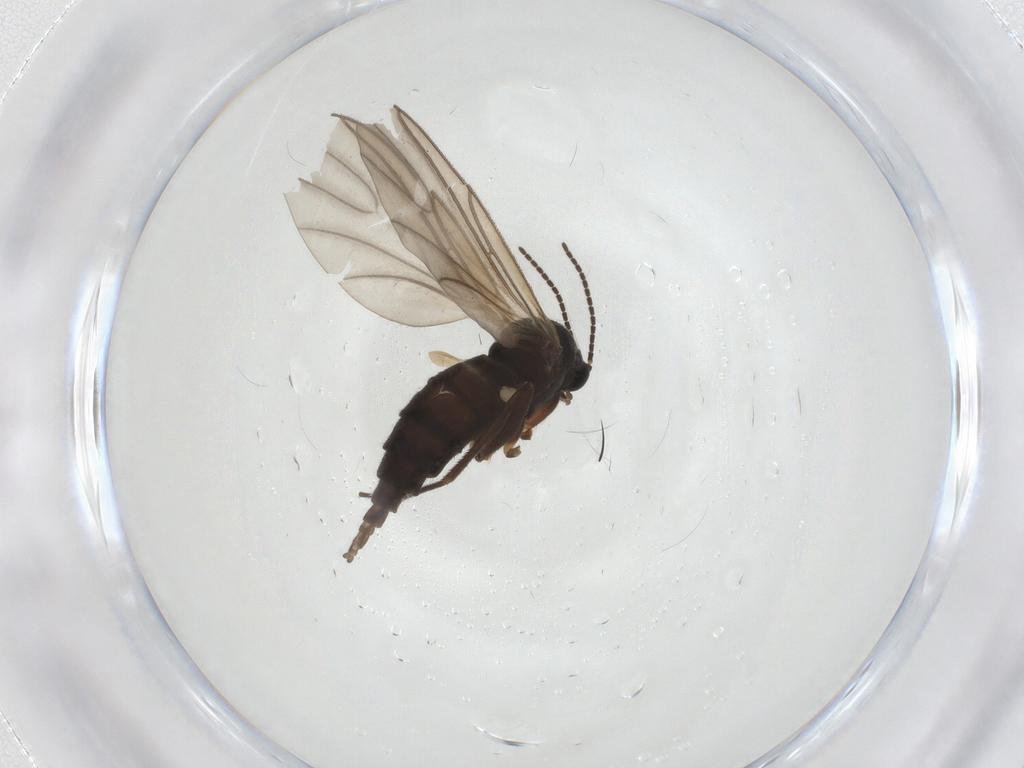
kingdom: Animalia
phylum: Arthropoda
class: Insecta
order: Diptera
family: Sciaridae
